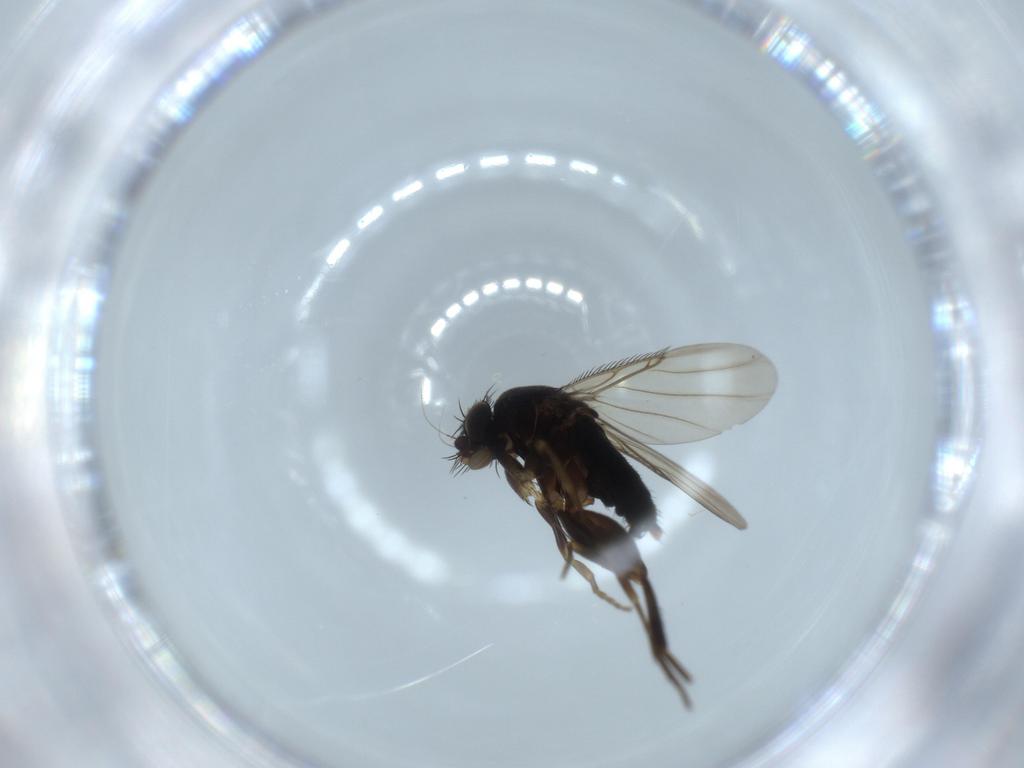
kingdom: Animalia
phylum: Arthropoda
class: Insecta
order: Diptera
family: Phoridae
